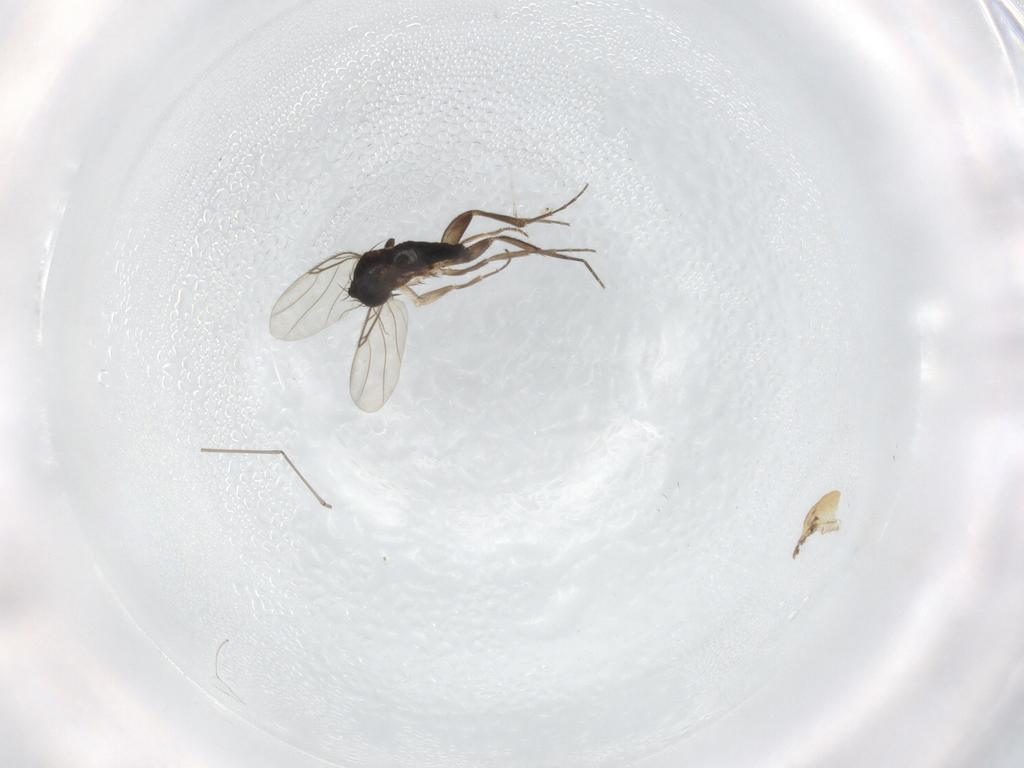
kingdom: Animalia
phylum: Arthropoda
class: Insecta
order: Diptera
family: Phoridae
